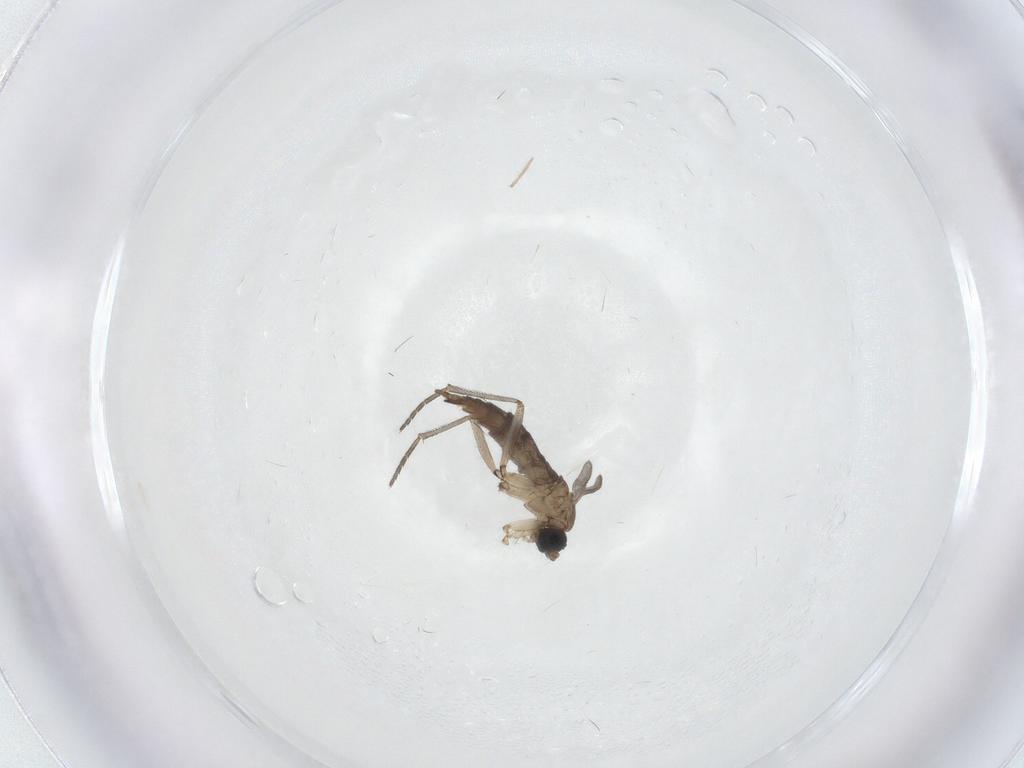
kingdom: Animalia
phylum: Arthropoda
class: Insecta
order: Diptera
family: Sciaridae
